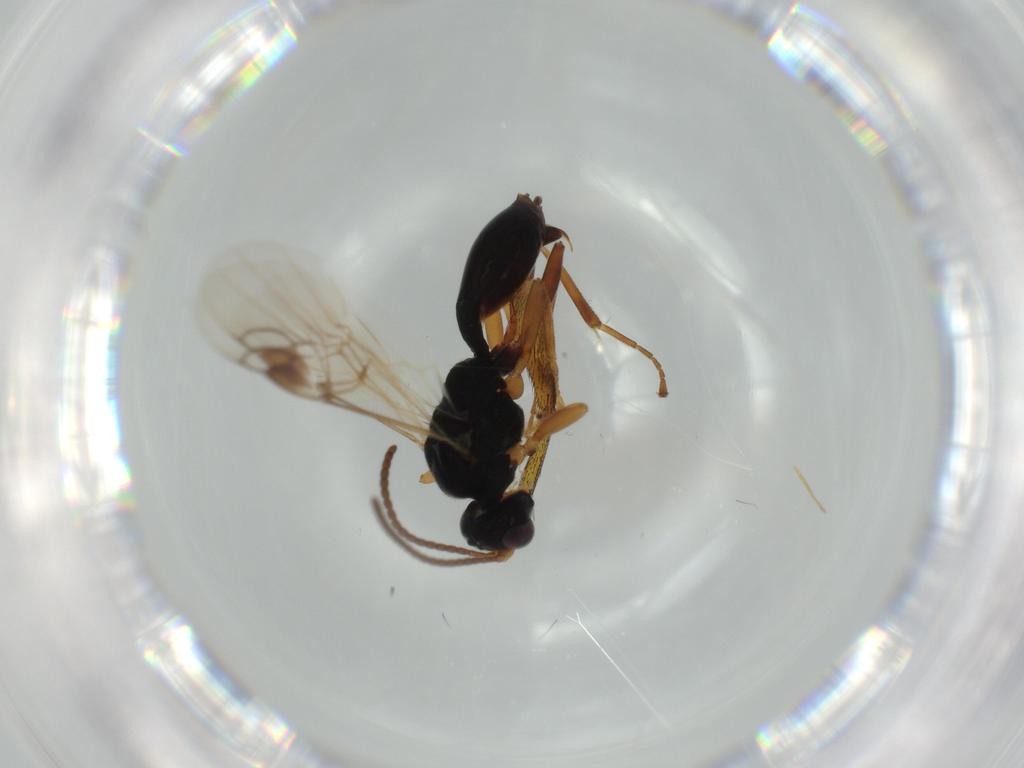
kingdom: Animalia
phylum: Arthropoda
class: Insecta
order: Hymenoptera
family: Braconidae
